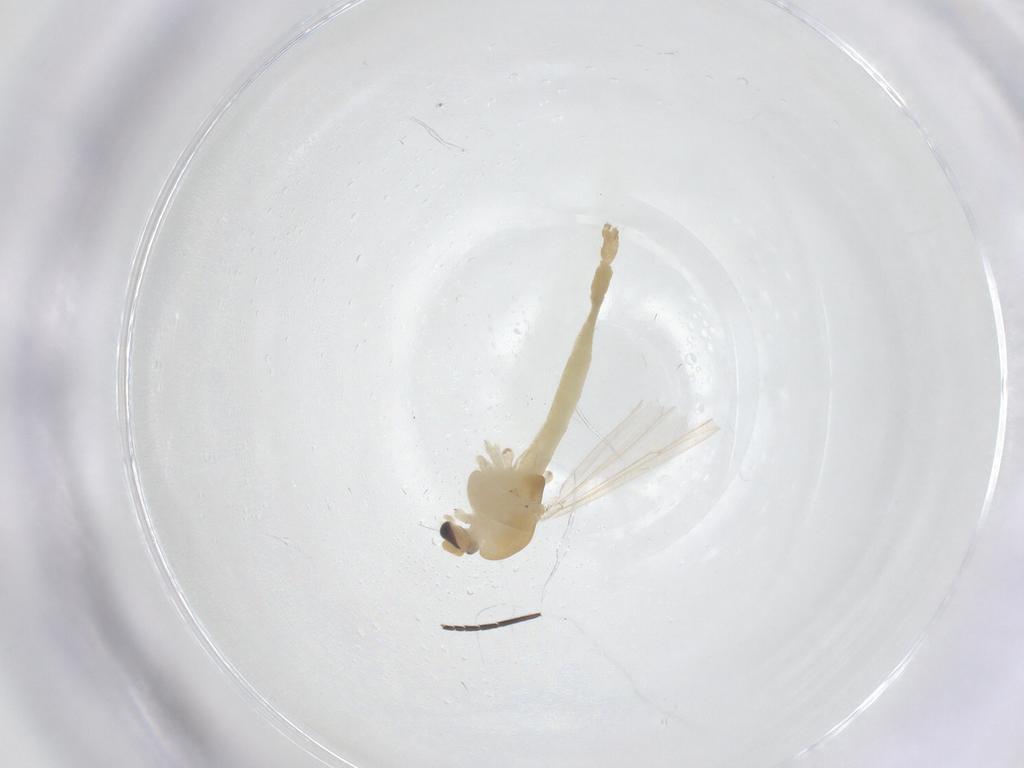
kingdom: Animalia
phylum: Arthropoda
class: Insecta
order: Diptera
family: Chironomidae
